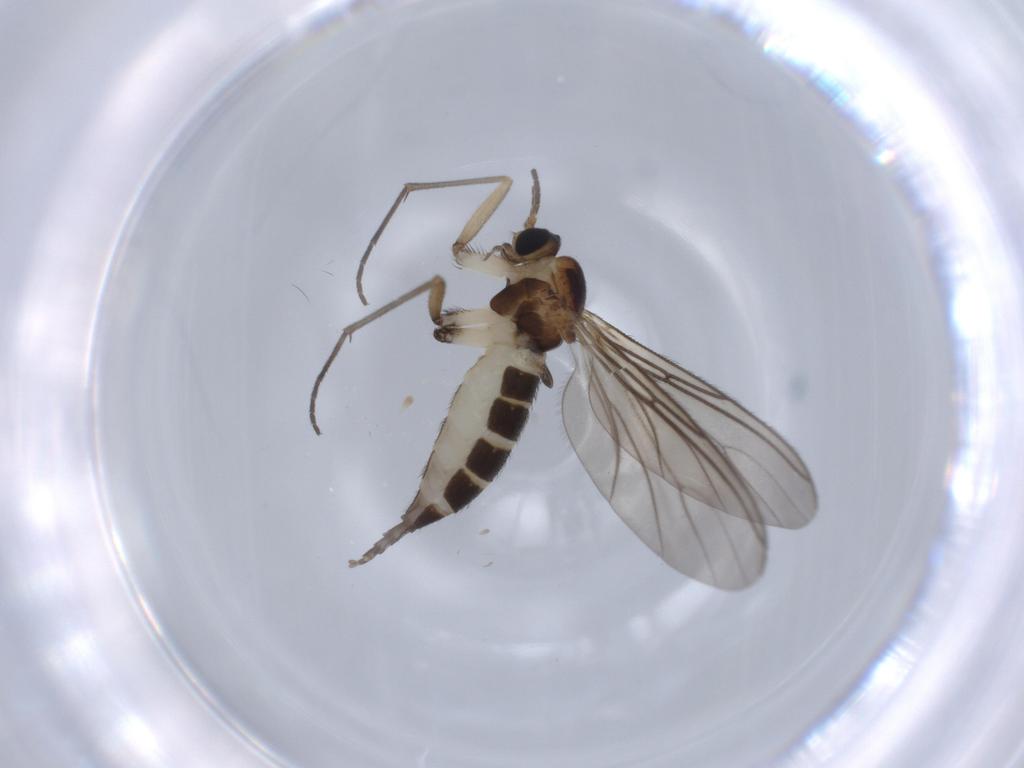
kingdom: Animalia
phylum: Arthropoda
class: Insecta
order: Diptera
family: Sciaridae
